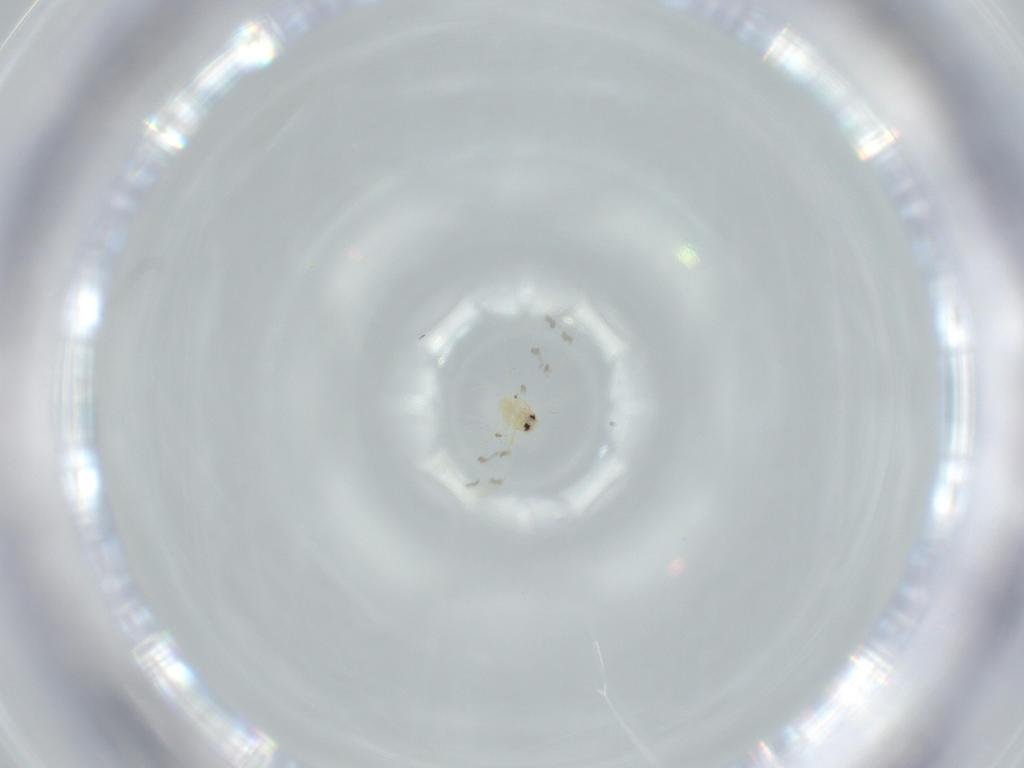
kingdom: Animalia
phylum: Arthropoda
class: Insecta
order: Hemiptera
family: Aleyrodidae
